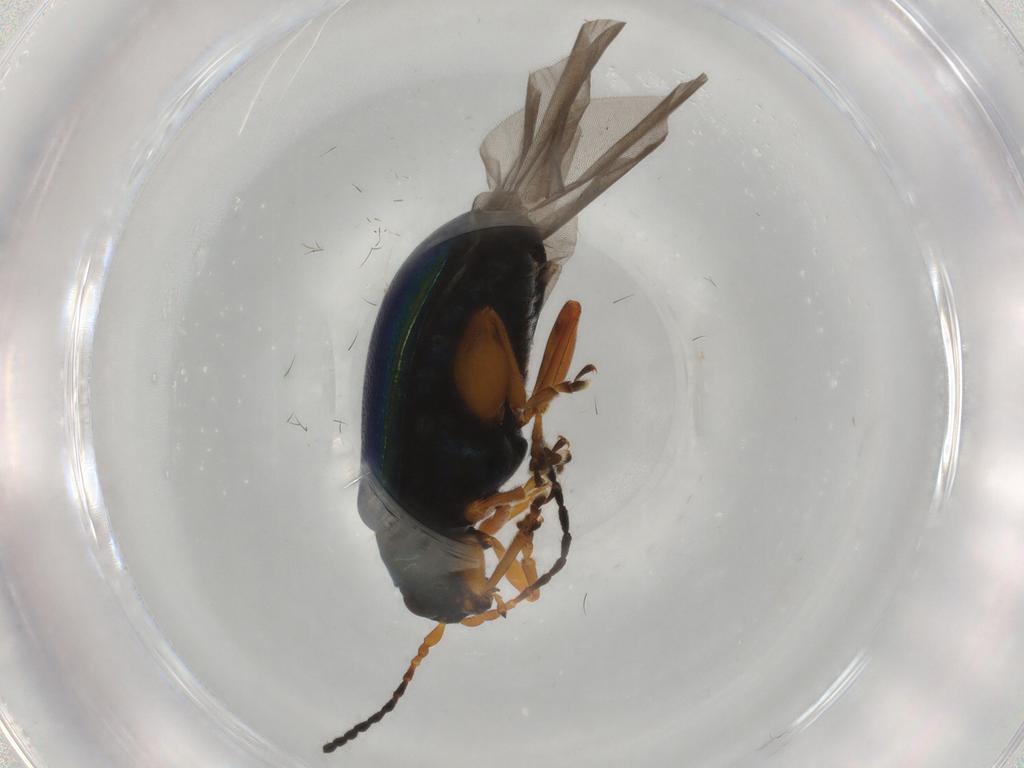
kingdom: Animalia
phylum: Arthropoda
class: Insecta
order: Coleoptera
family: Chrysomelidae
